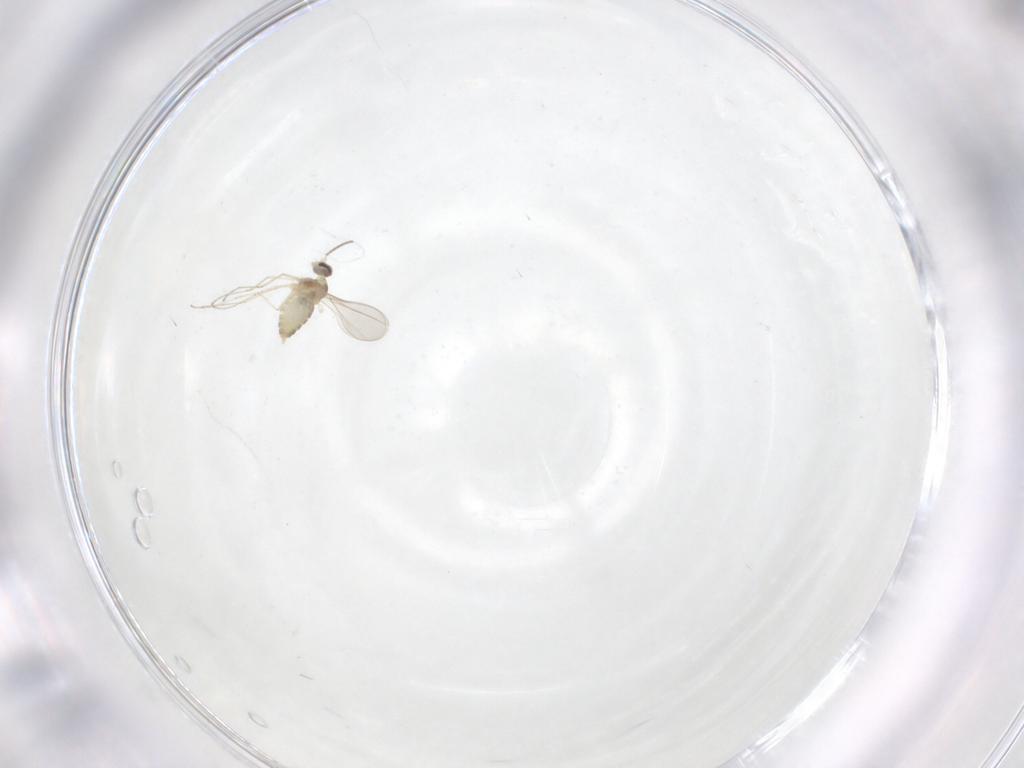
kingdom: Animalia
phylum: Arthropoda
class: Insecta
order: Diptera
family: Cecidomyiidae
